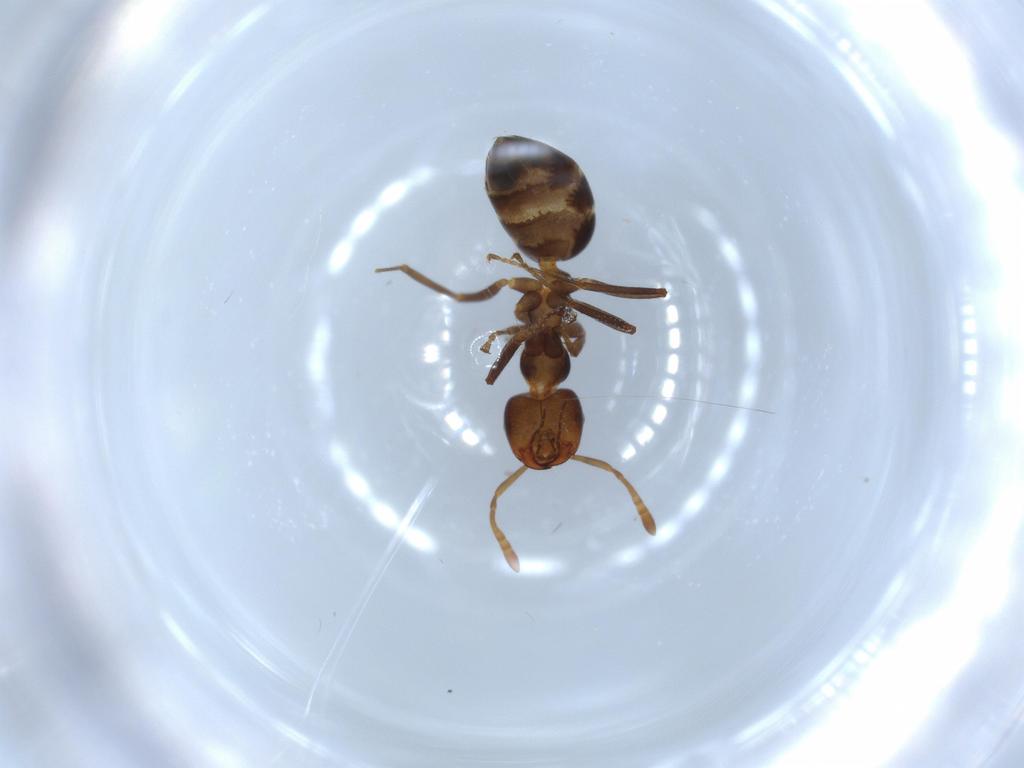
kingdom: Animalia
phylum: Arthropoda
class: Insecta
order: Hymenoptera
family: Formicidae
